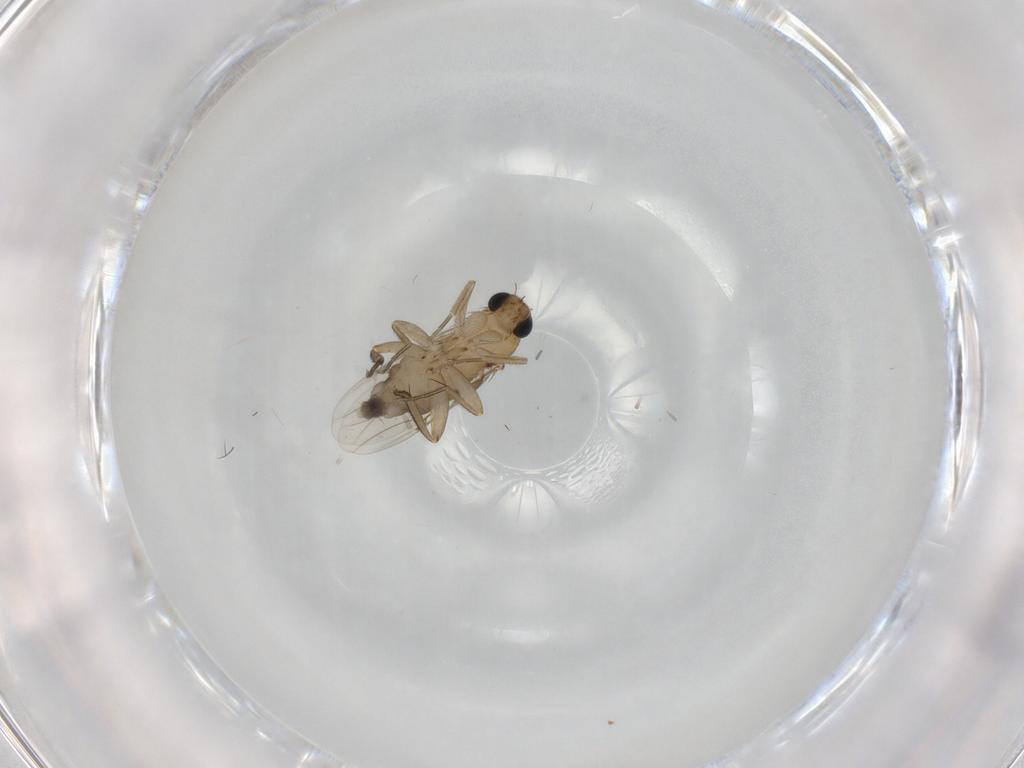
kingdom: Animalia
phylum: Arthropoda
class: Insecta
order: Diptera
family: Phoridae
